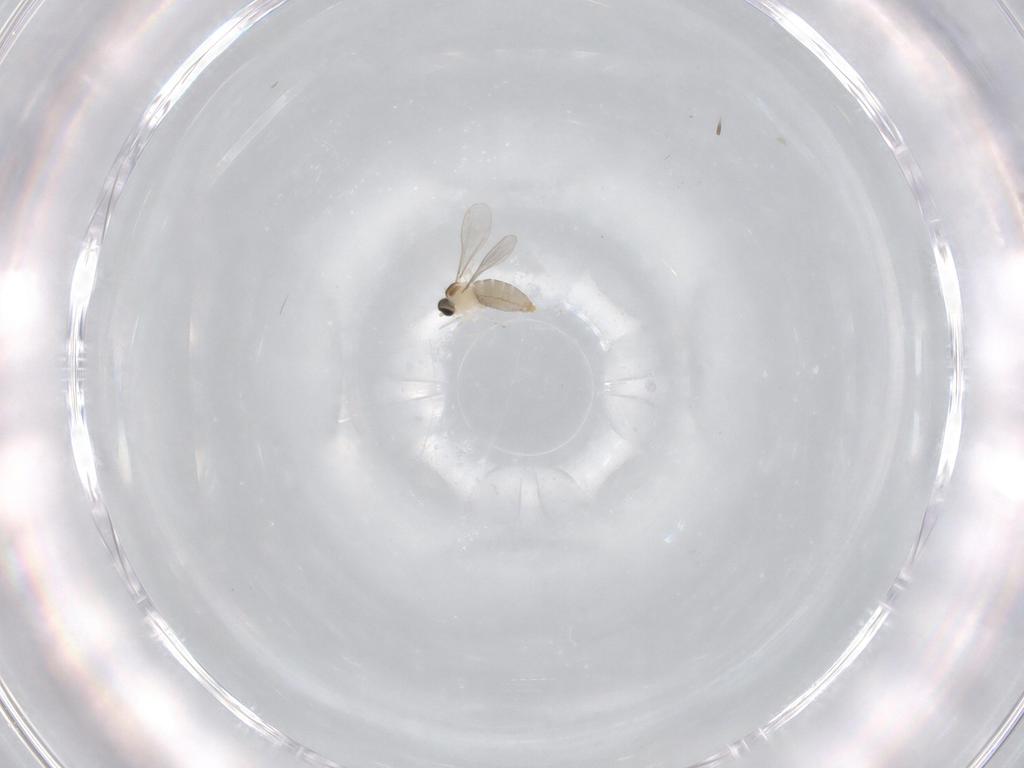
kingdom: Animalia
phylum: Arthropoda
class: Insecta
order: Diptera
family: Cecidomyiidae
